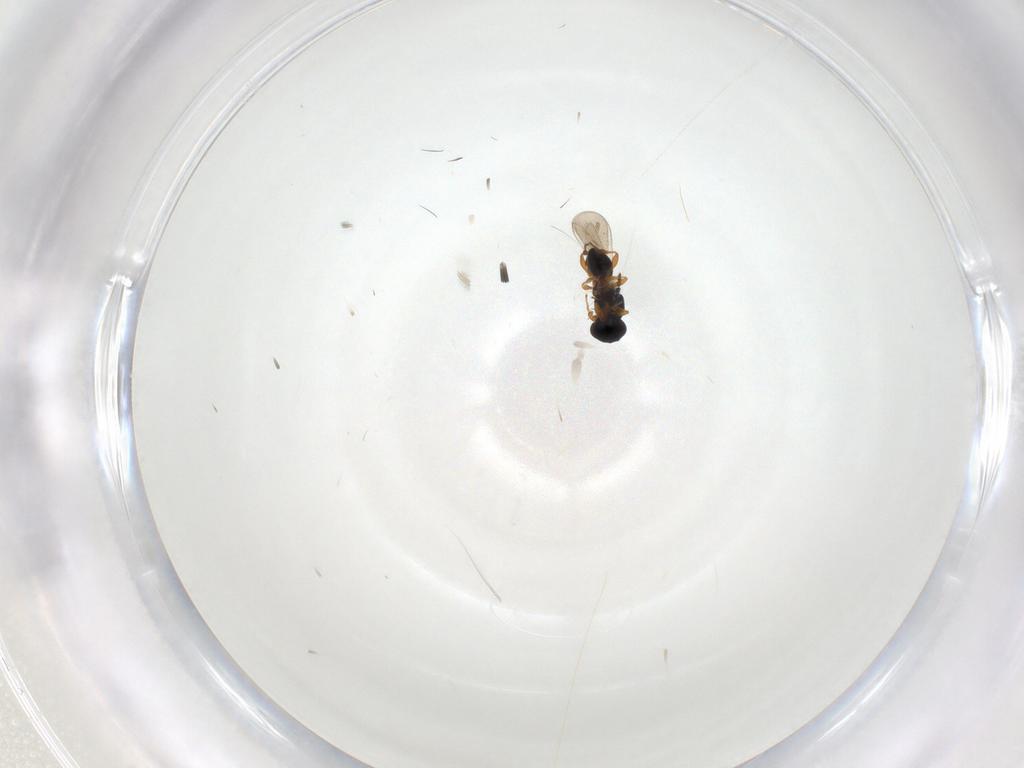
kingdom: Animalia
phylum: Arthropoda
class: Insecta
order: Hymenoptera
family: Platygastridae
